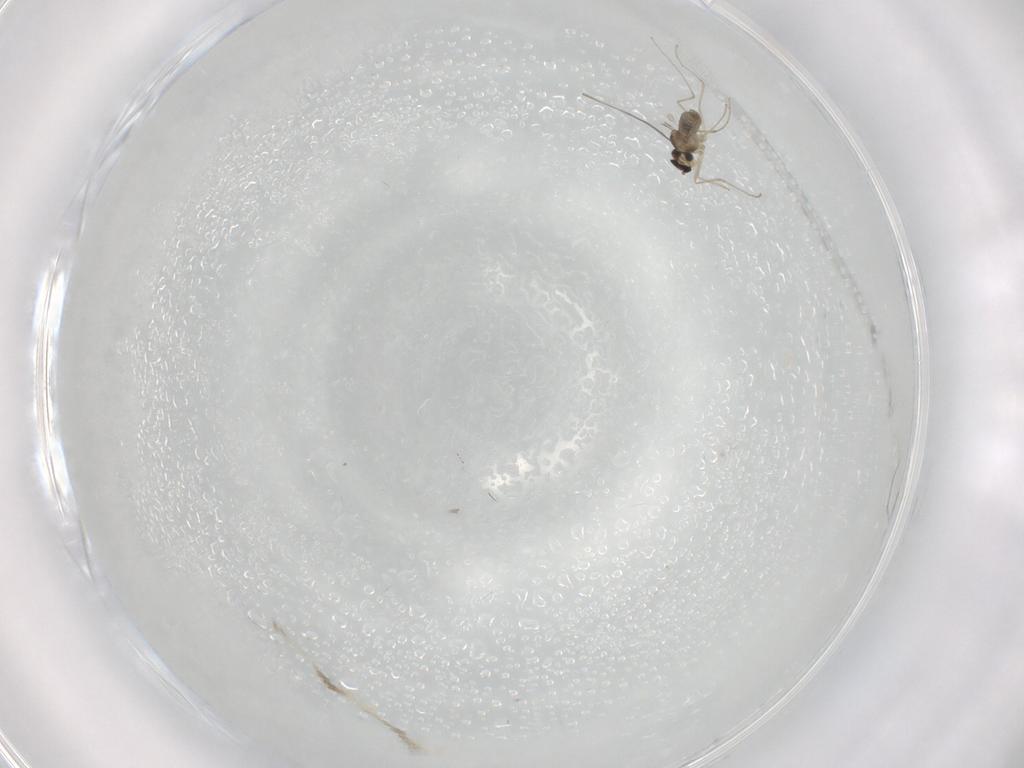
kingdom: Animalia
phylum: Arthropoda
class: Insecta
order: Diptera
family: Cecidomyiidae
